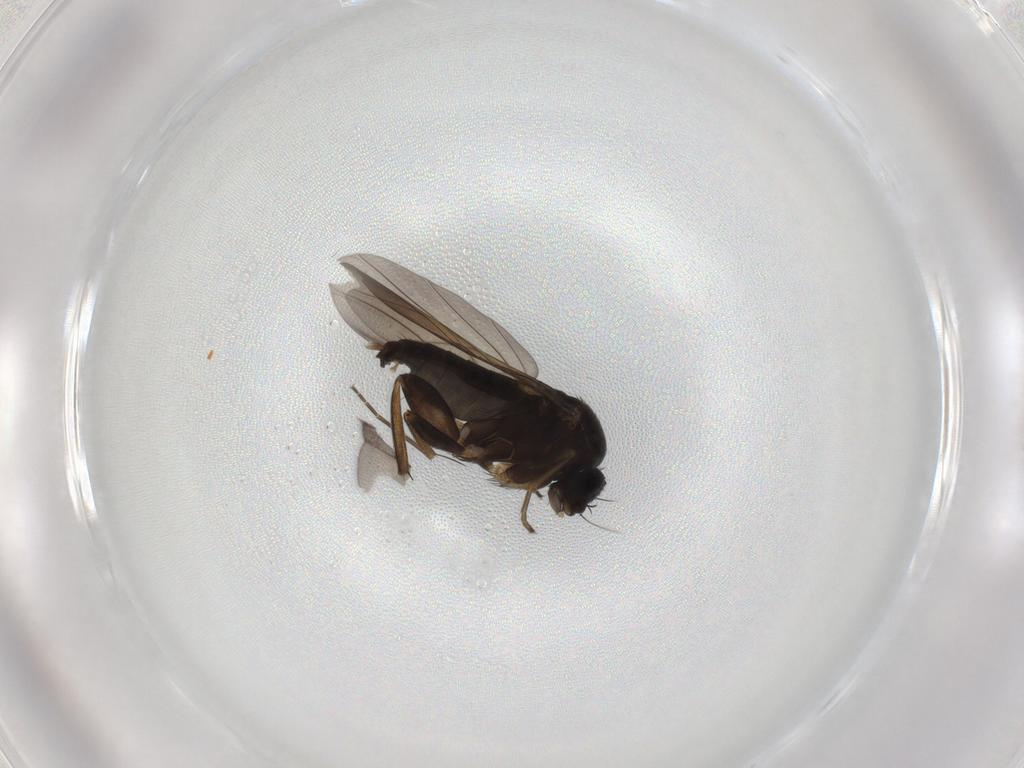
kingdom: Animalia
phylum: Arthropoda
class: Insecta
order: Diptera
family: Phoridae
